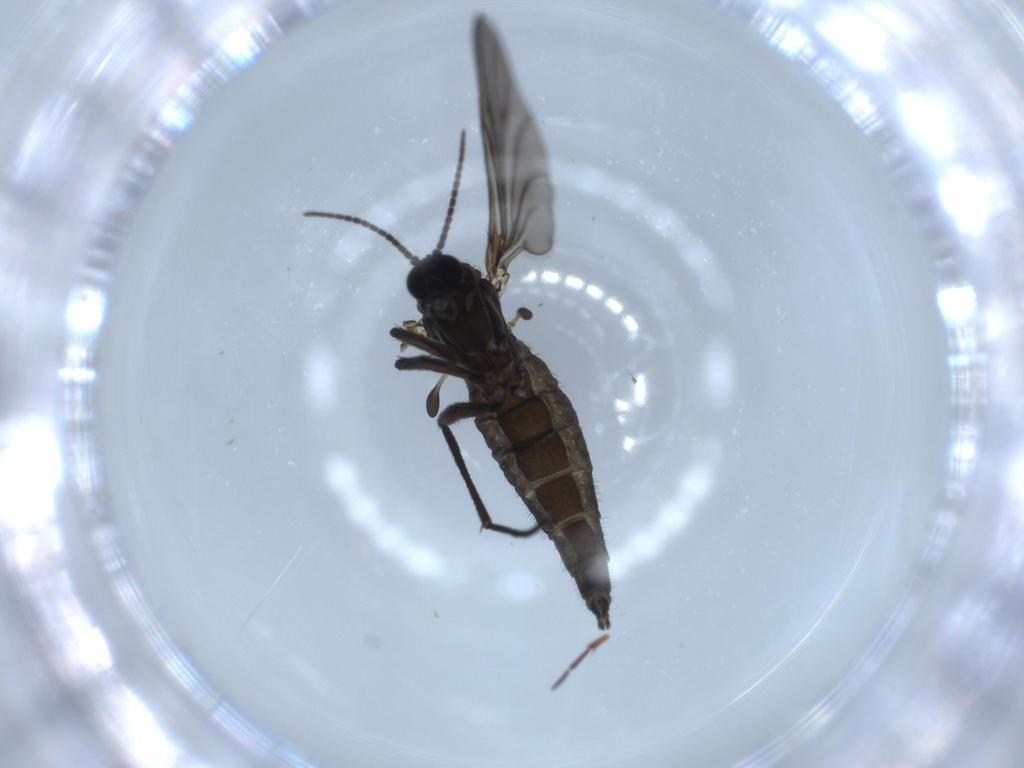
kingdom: Animalia
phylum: Arthropoda
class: Insecta
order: Diptera
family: Sciaridae
